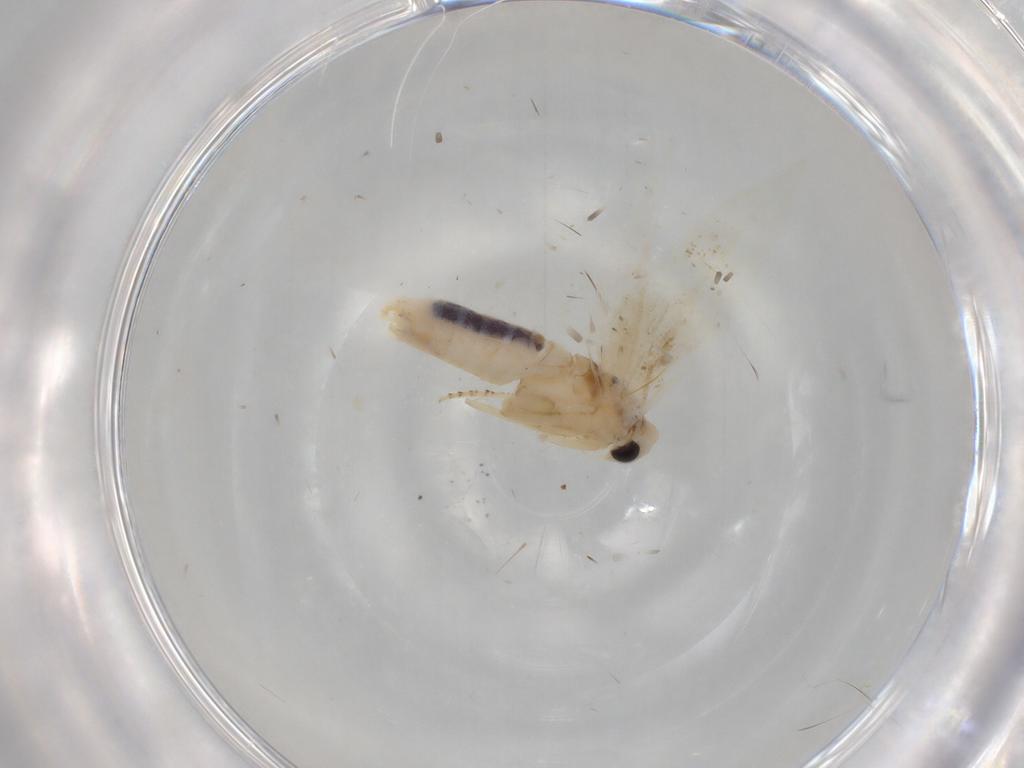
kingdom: Animalia
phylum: Arthropoda
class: Insecta
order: Lepidoptera
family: Bucculatricidae
